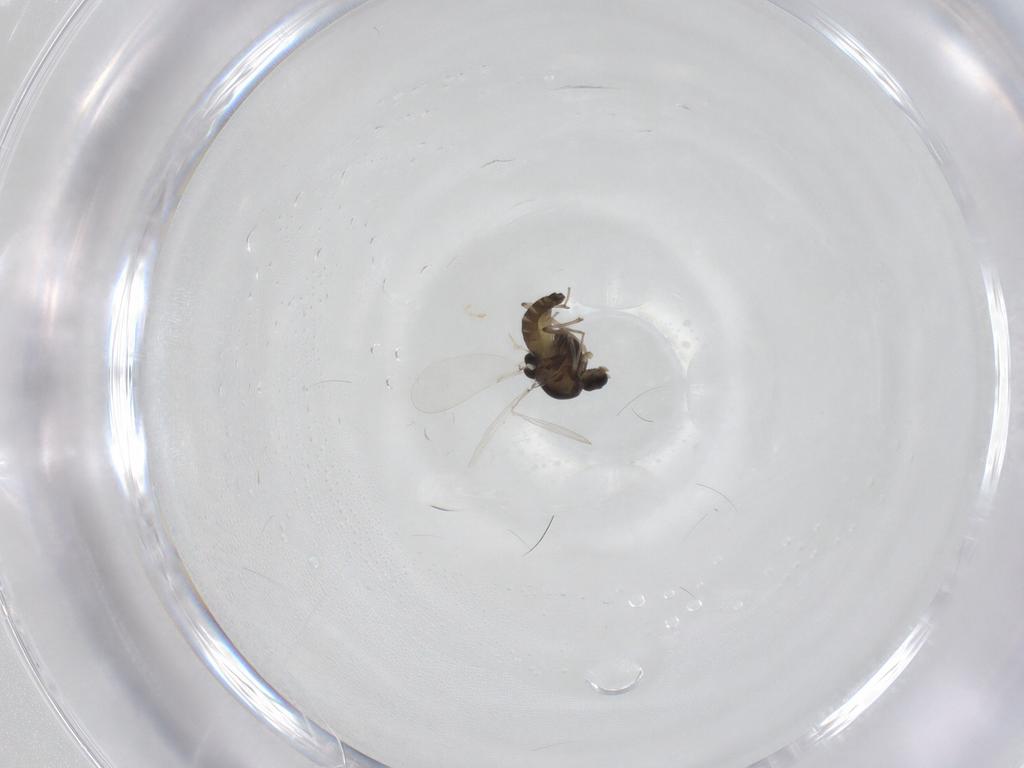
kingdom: Animalia
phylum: Arthropoda
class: Insecta
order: Diptera
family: Chironomidae
